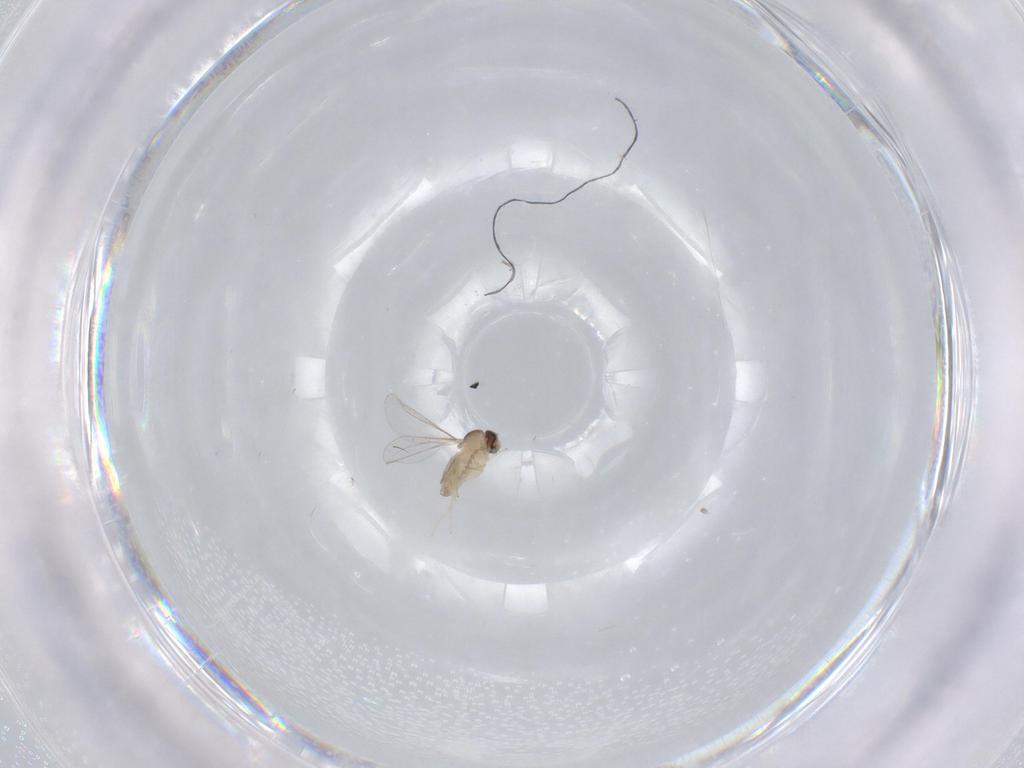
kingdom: Animalia
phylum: Arthropoda
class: Insecta
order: Diptera
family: Cecidomyiidae
